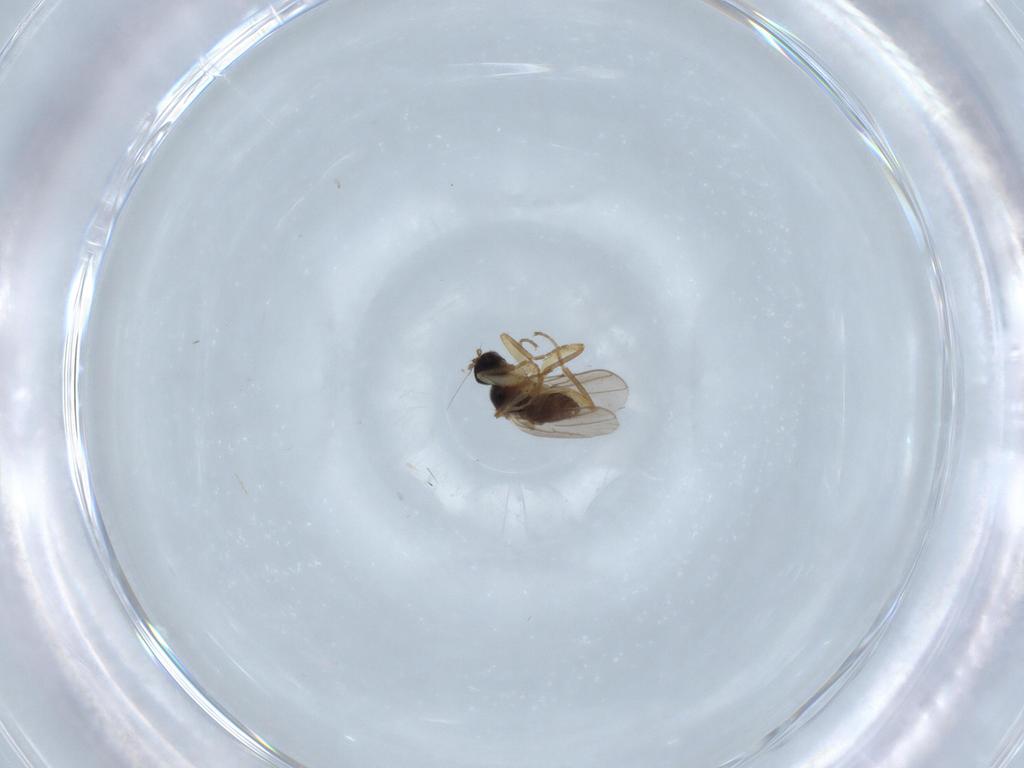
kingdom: Animalia
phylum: Arthropoda
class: Insecta
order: Diptera
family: Hybotidae
